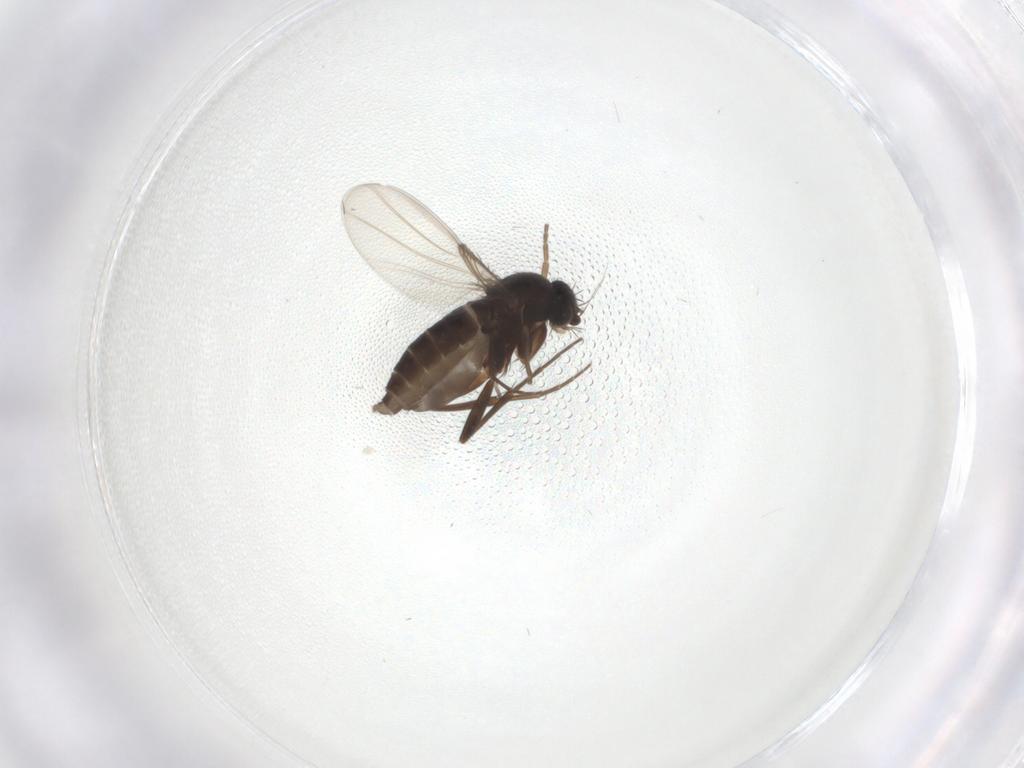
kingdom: Animalia
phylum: Arthropoda
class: Insecta
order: Diptera
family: Phoridae
